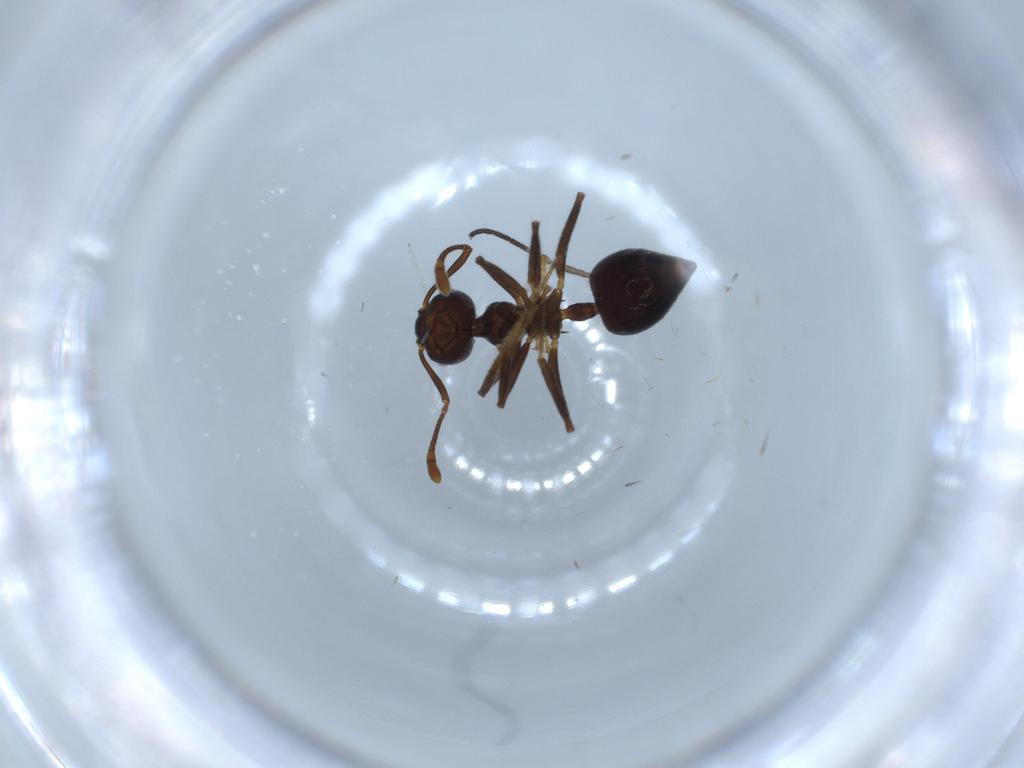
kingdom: Animalia
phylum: Arthropoda
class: Insecta
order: Hymenoptera
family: Formicidae
